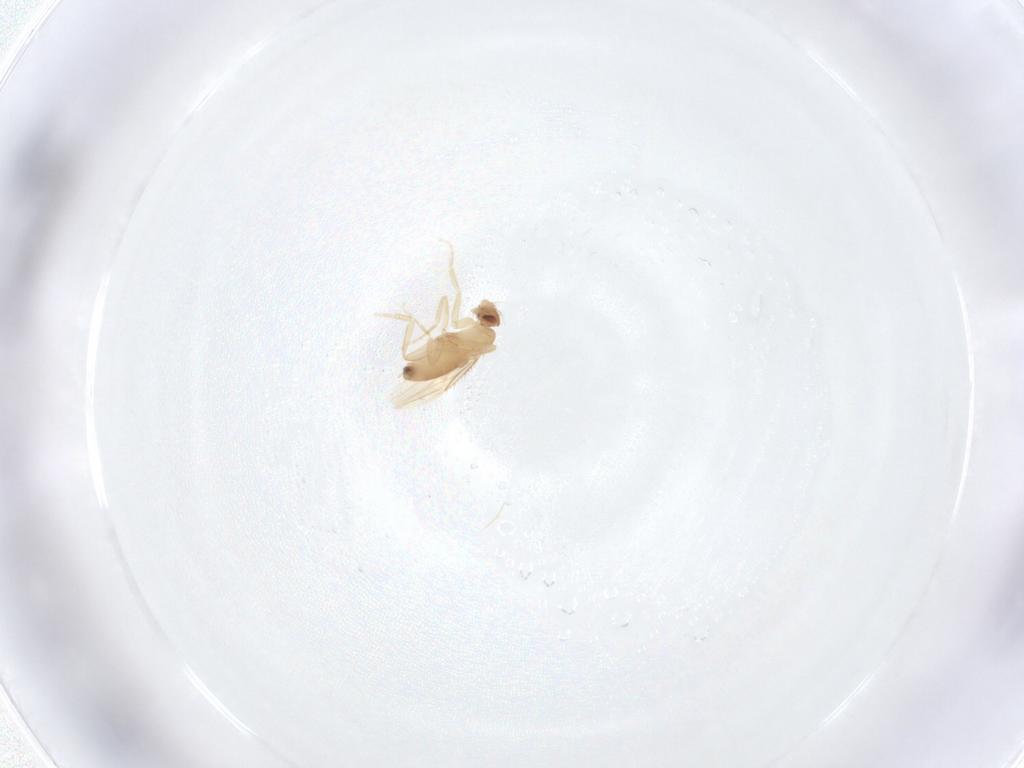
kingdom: Animalia
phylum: Arthropoda
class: Insecta
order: Diptera
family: Phoridae
